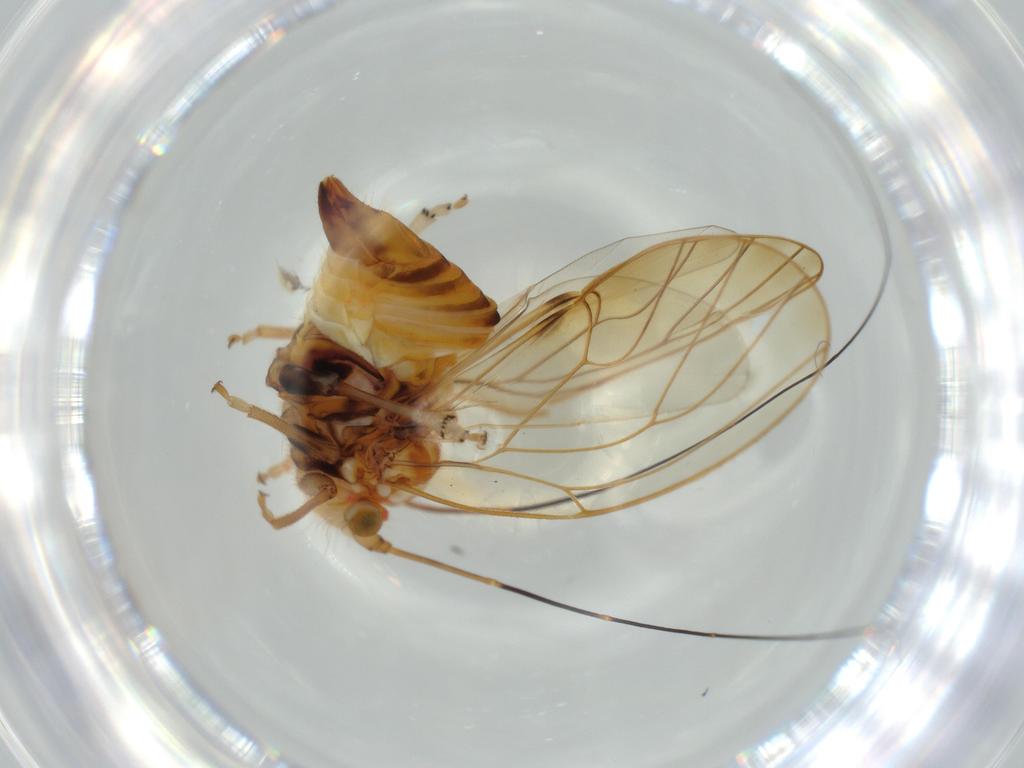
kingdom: Animalia
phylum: Arthropoda
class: Insecta
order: Hemiptera
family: Psyllidae
